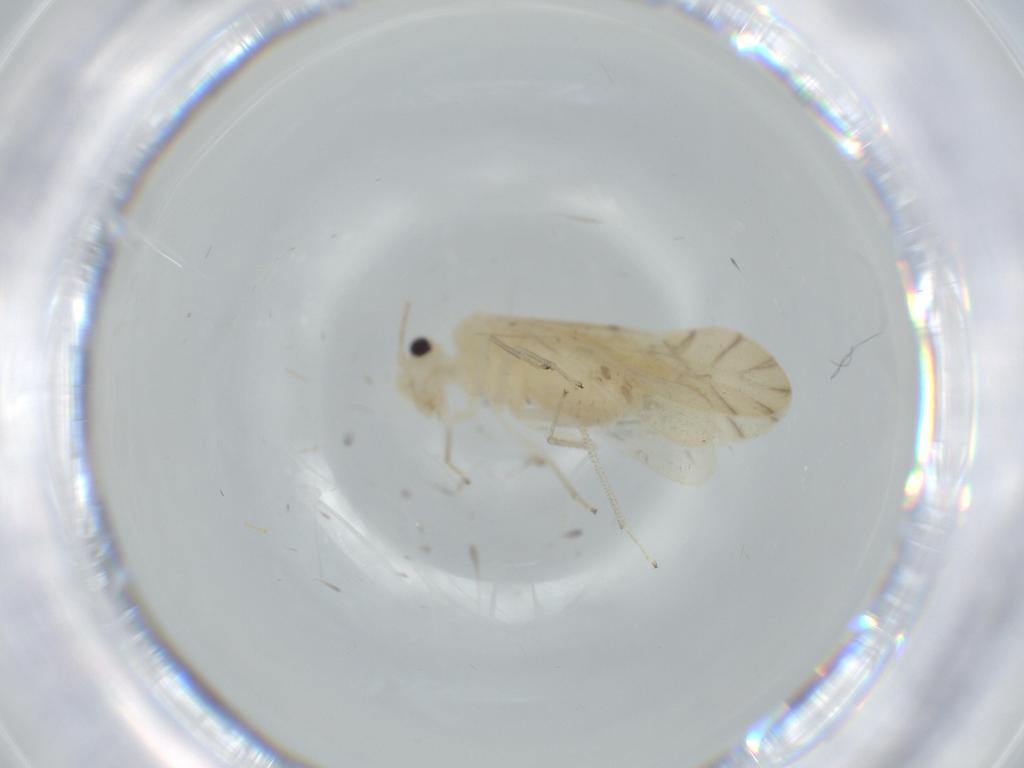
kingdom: Animalia
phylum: Arthropoda
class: Insecta
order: Psocodea
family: Caeciliusidae
